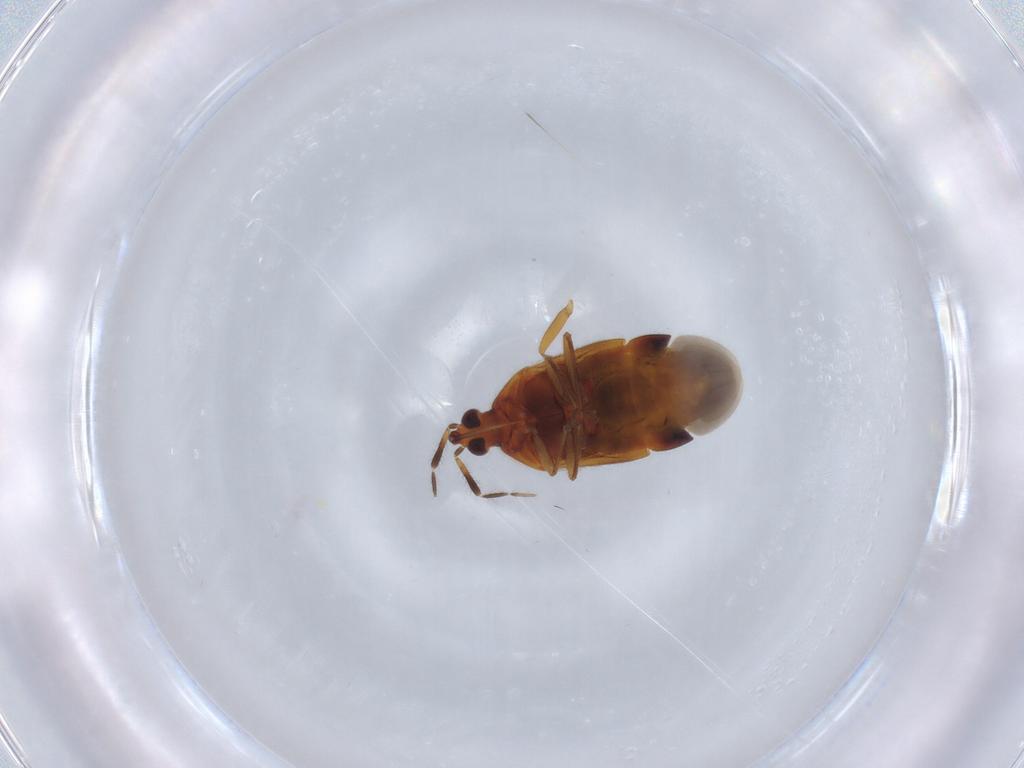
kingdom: Animalia
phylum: Arthropoda
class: Insecta
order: Hemiptera
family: Anthocoridae
